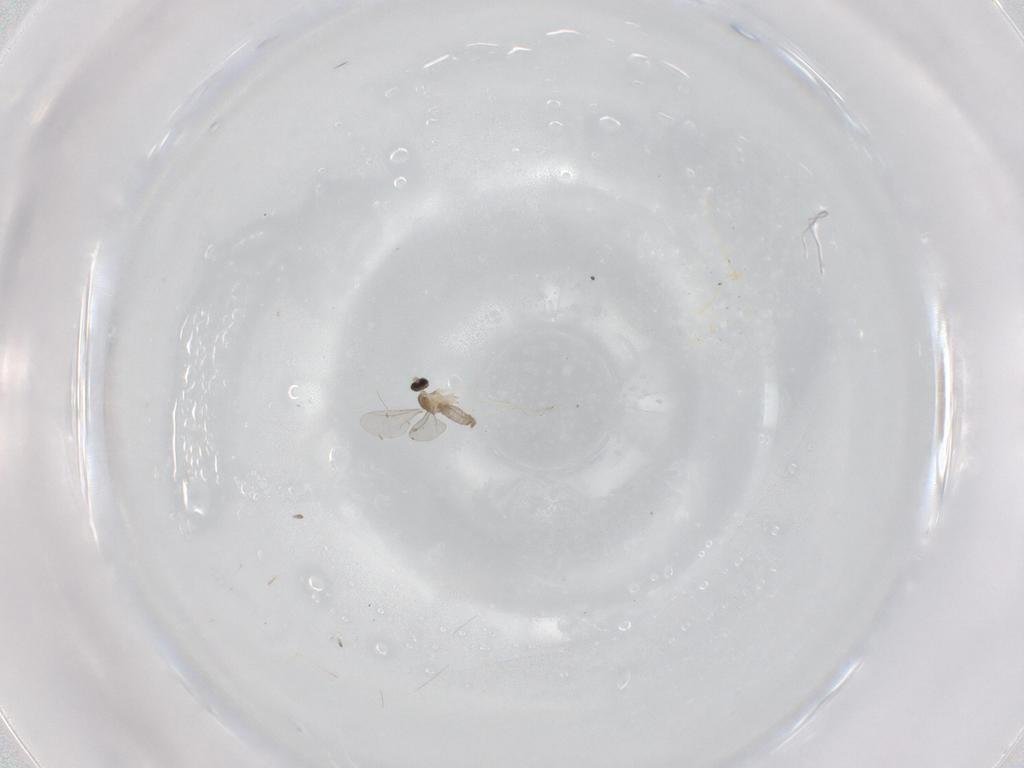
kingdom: Animalia
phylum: Arthropoda
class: Insecta
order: Diptera
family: Cecidomyiidae
